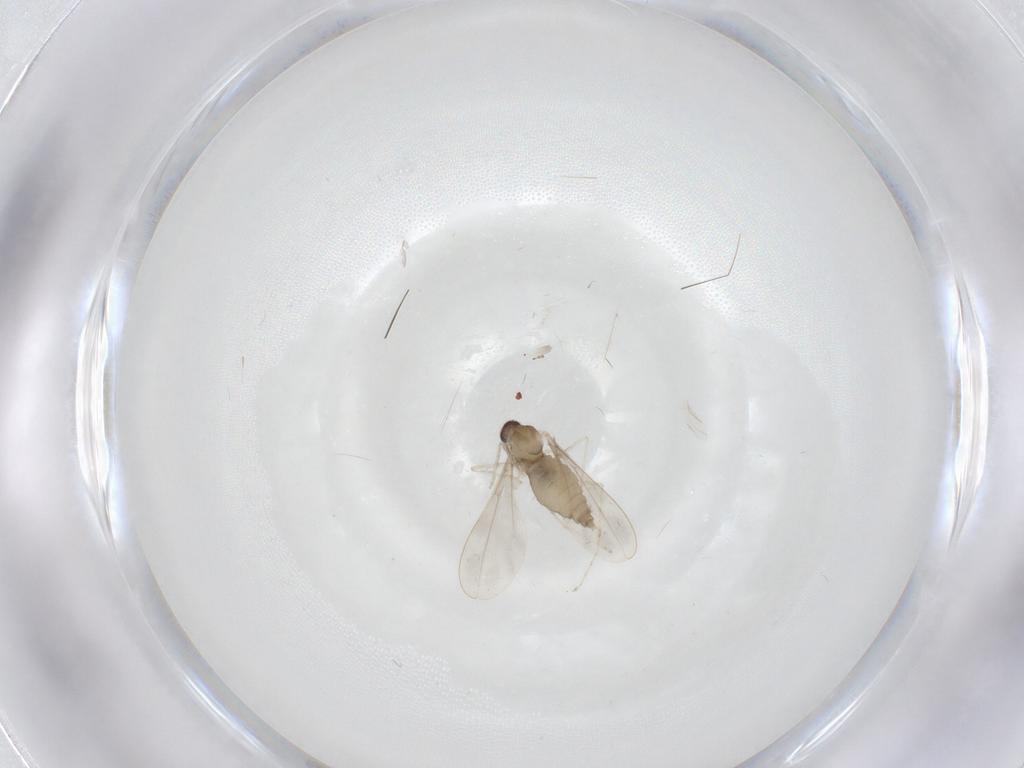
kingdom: Animalia
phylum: Arthropoda
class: Insecta
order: Diptera
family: Cecidomyiidae
